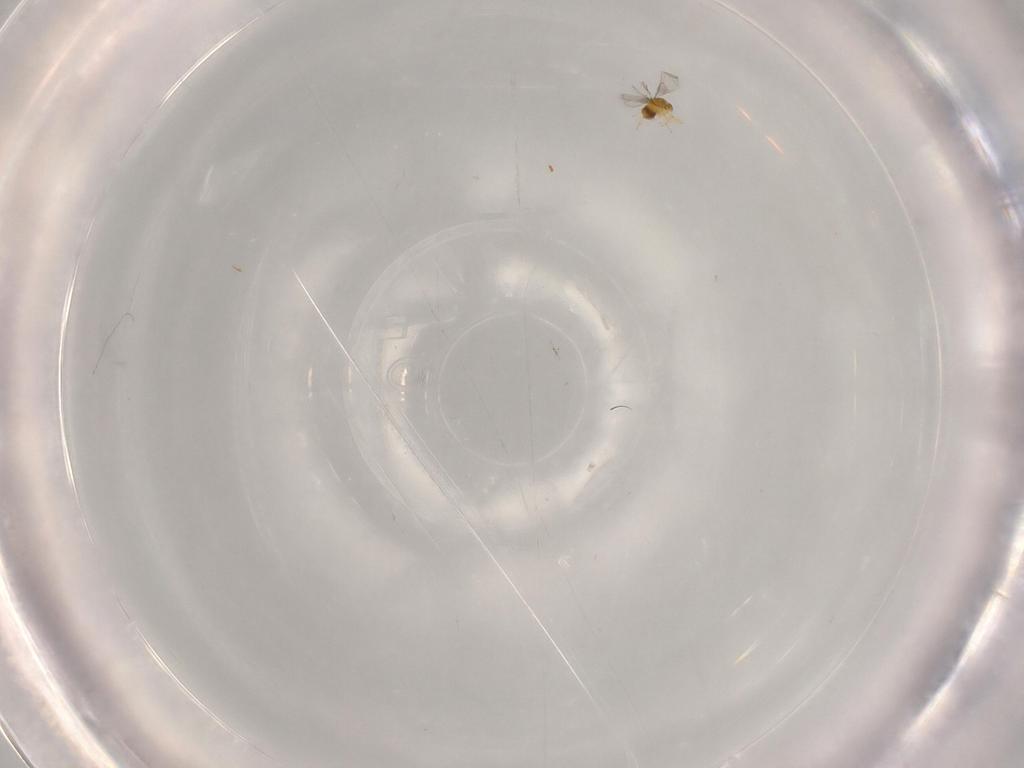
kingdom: Animalia
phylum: Arthropoda
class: Insecta
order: Hymenoptera
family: Trichogrammatidae
